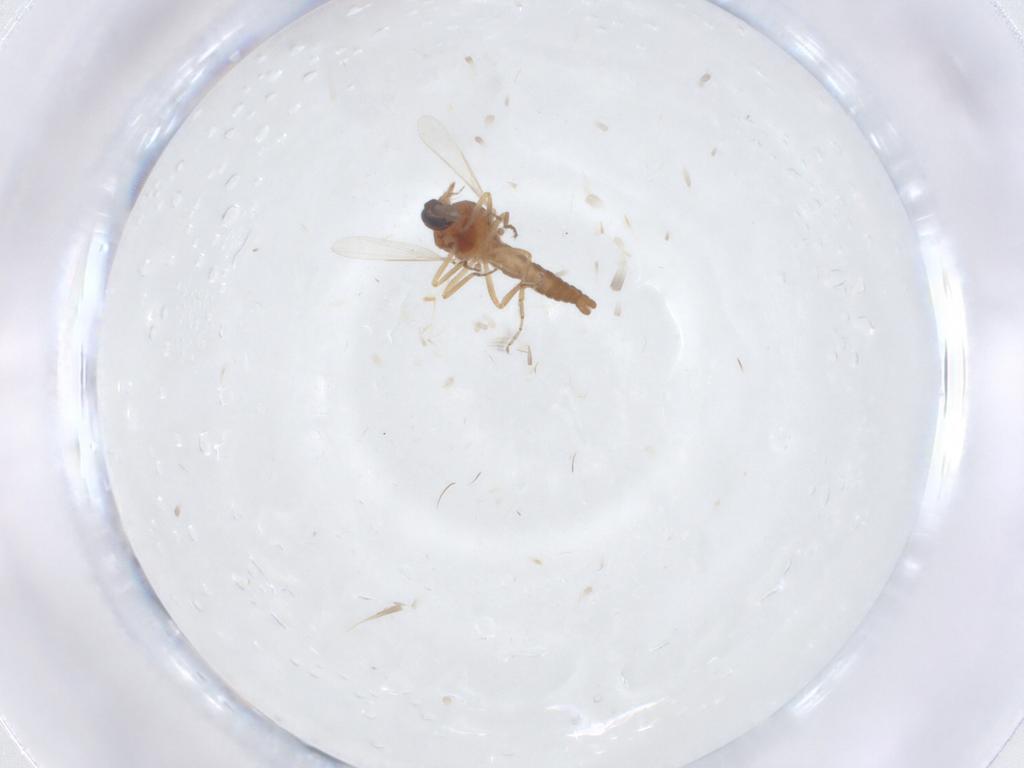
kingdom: Animalia
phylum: Arthropoda
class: Insecta
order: Diptera
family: Ceratopogonidae
